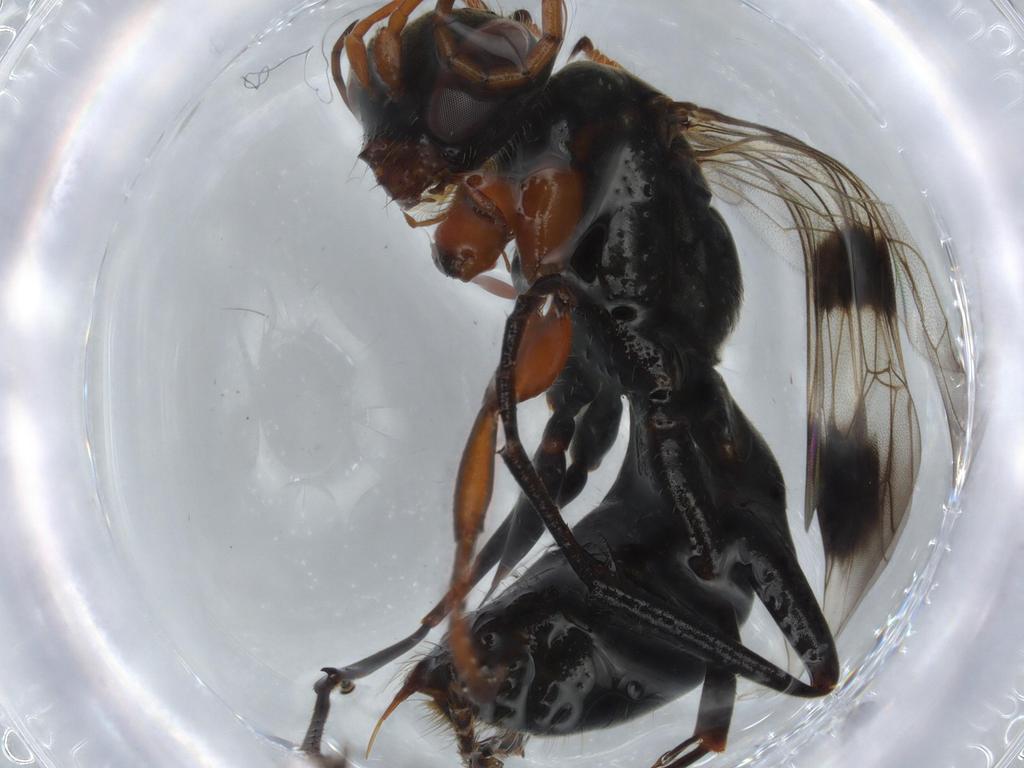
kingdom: Animalia
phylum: Arthropoda
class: Insecta
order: Hymenoptera
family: Pompilidae
